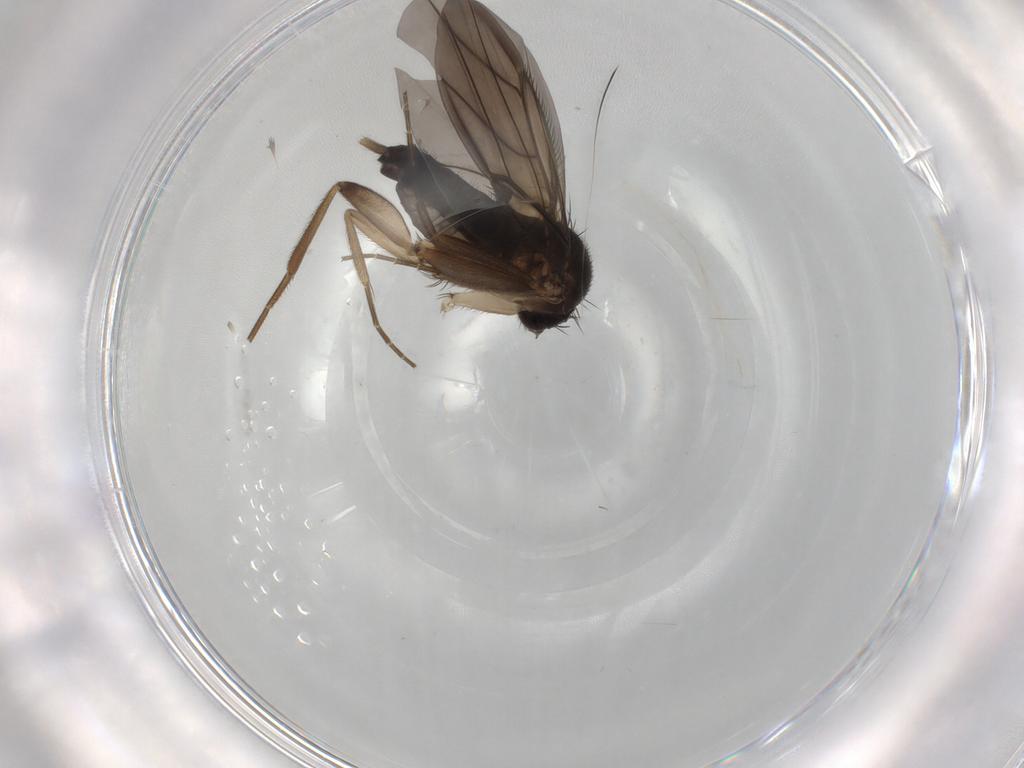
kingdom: Animalia
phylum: Arthropoda
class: Insecta
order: Diptera
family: Phoridae
